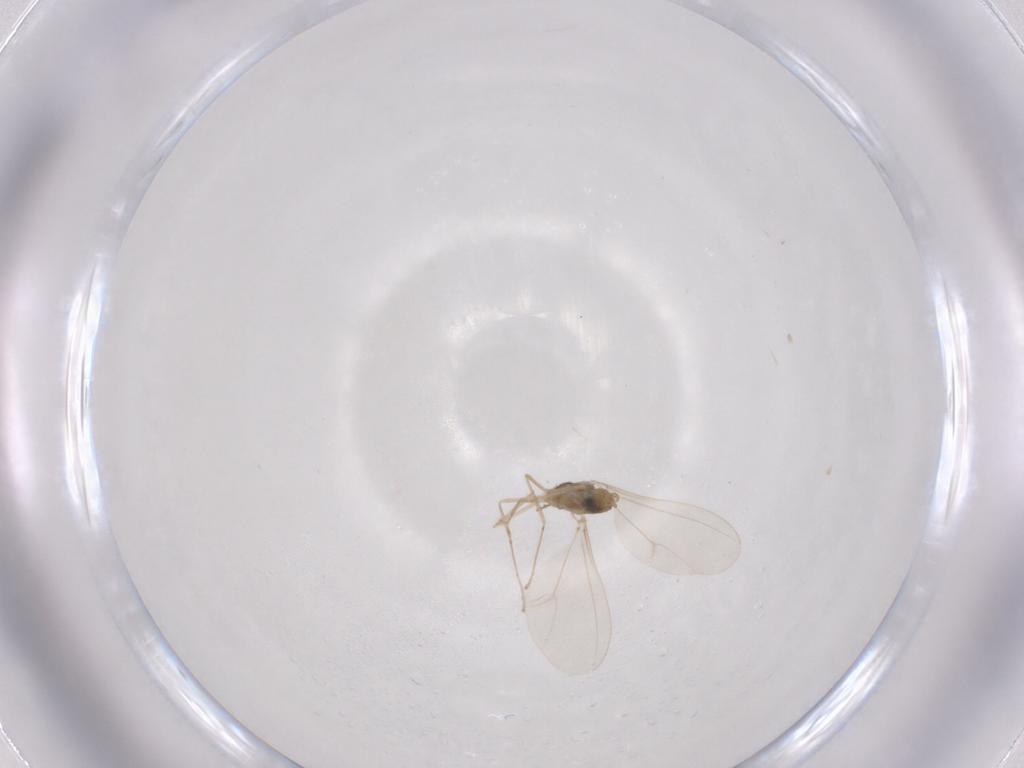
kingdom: Animalia
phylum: Arthropoda
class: Insecta
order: Diptera
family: Cecidomyiidae
